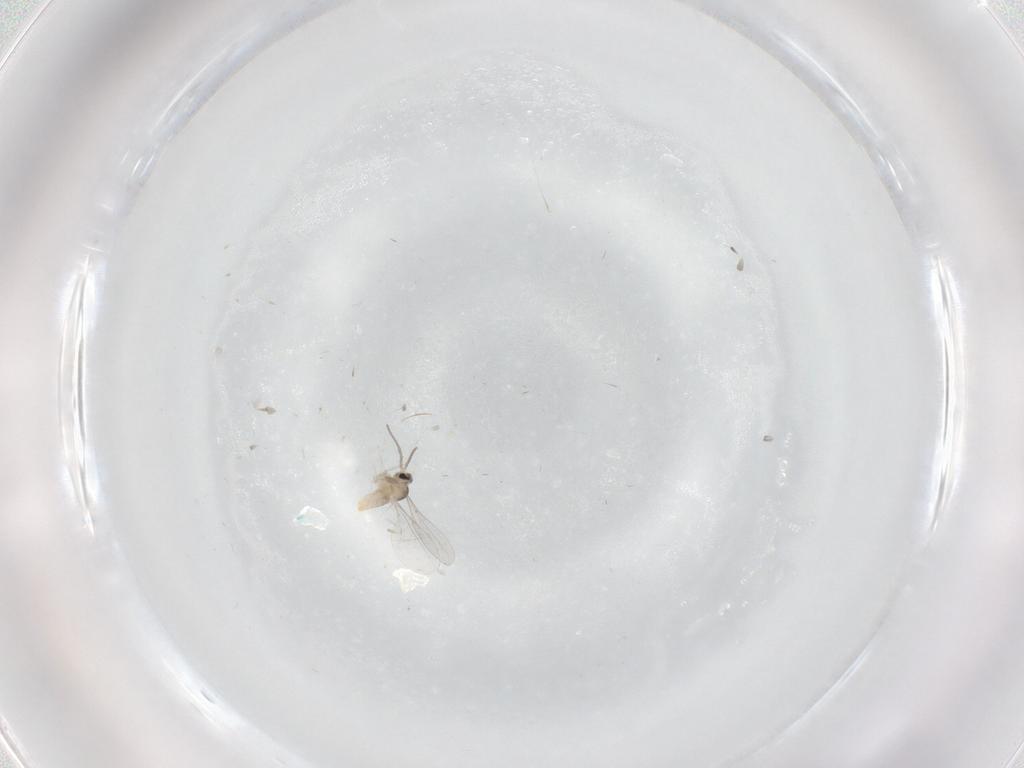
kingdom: Animalia
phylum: Arthropoda
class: Insecta
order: Diptera
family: Cecidomyiidae
